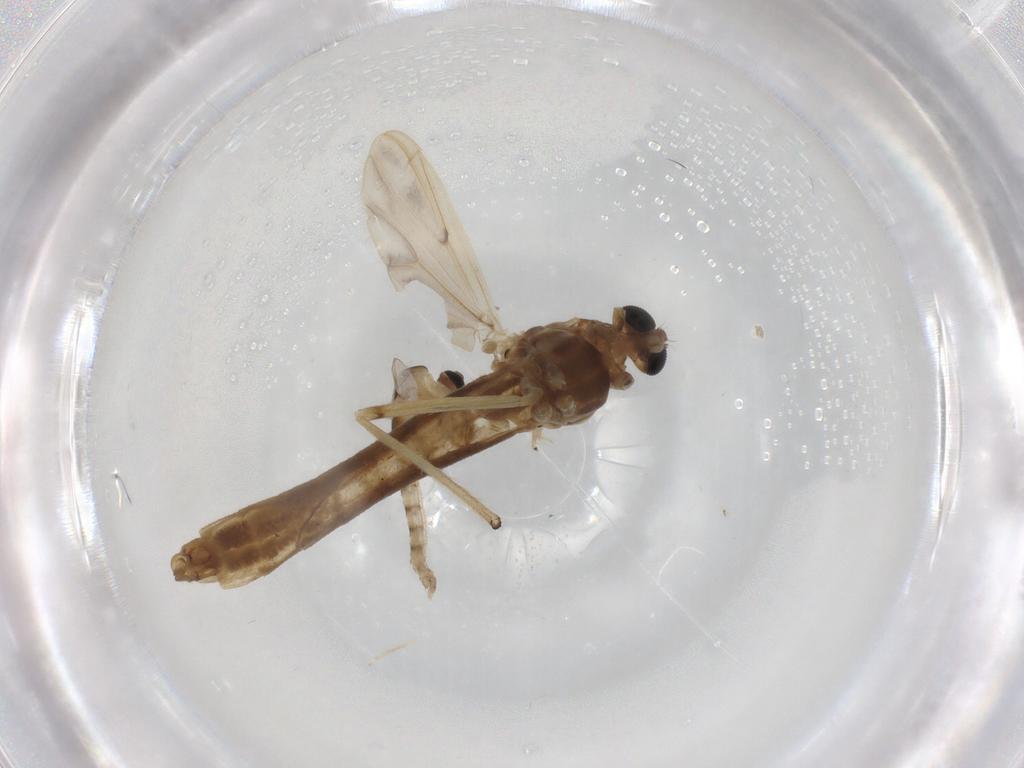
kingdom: Animalia
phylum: Arthropoda
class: Insecta
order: Diptera
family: Chironomidae
